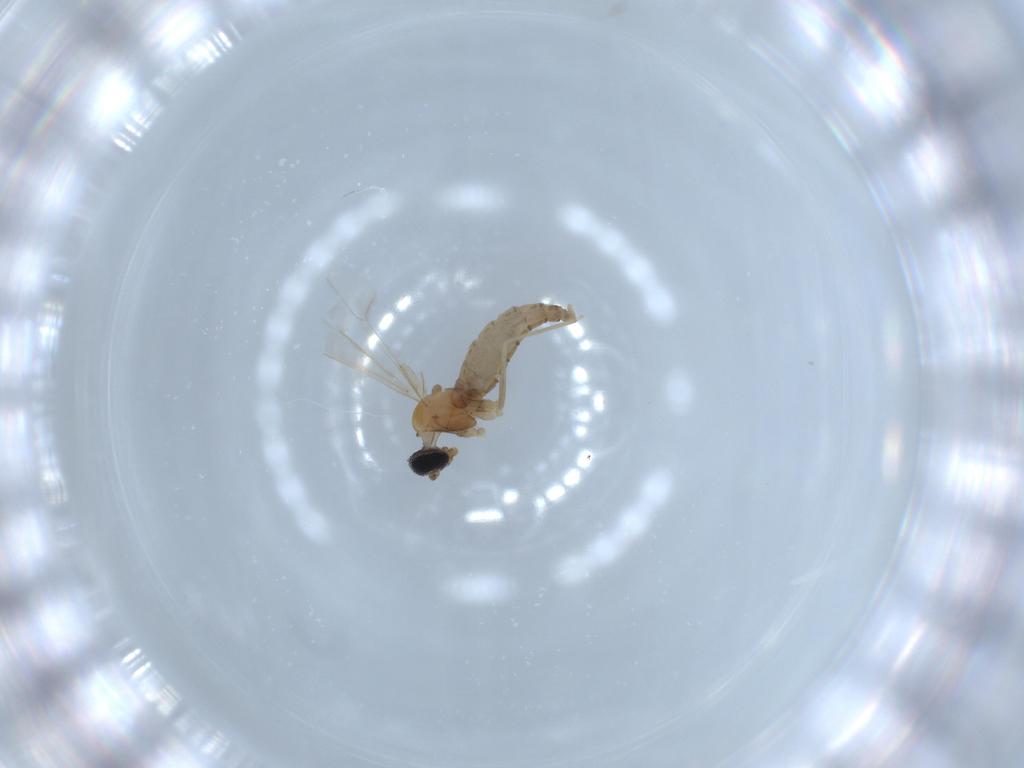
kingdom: Animalia
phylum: Arthropoda
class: Insecta
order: Diptera
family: Cecidomyiidae
